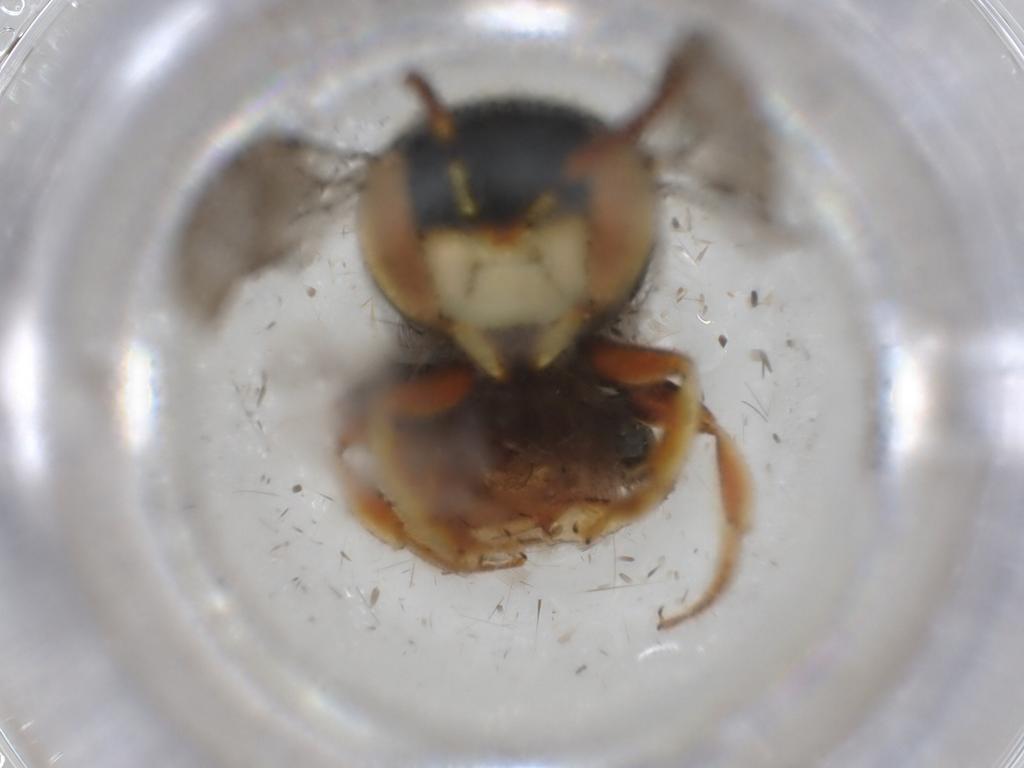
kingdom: Animalia
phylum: Arthropoda
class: Insecta
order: Hymenoptera
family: Megachilidae
